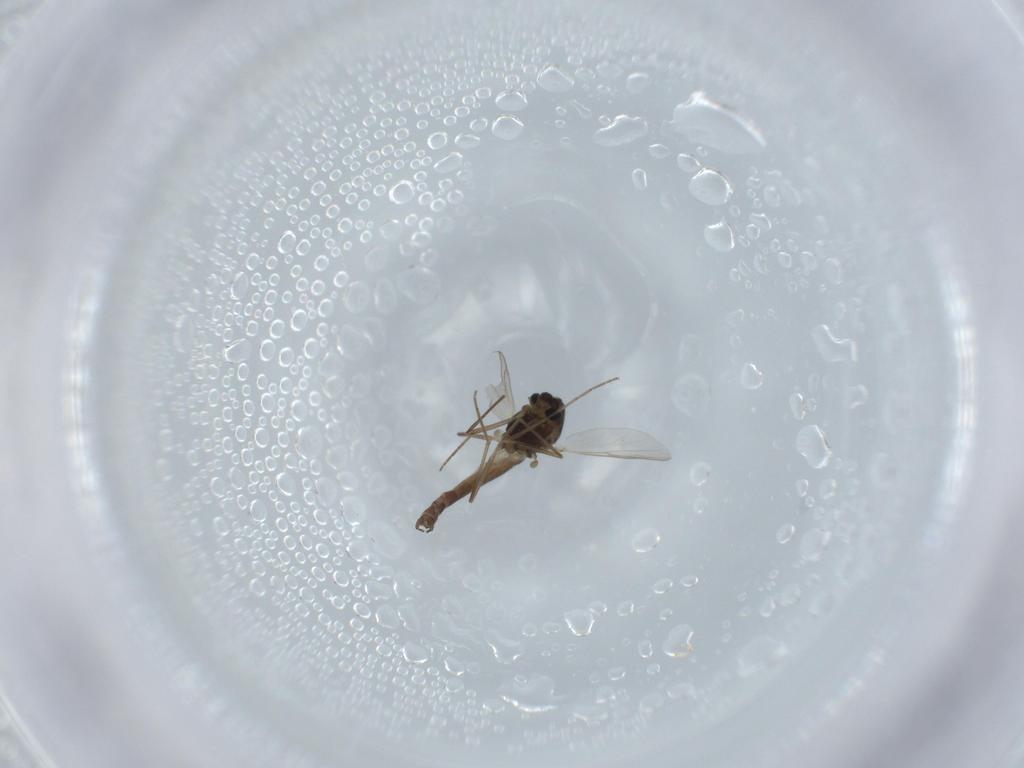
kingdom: Animalia
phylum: Arthropoda
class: Insecta
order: Diptera
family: Chironomidae
